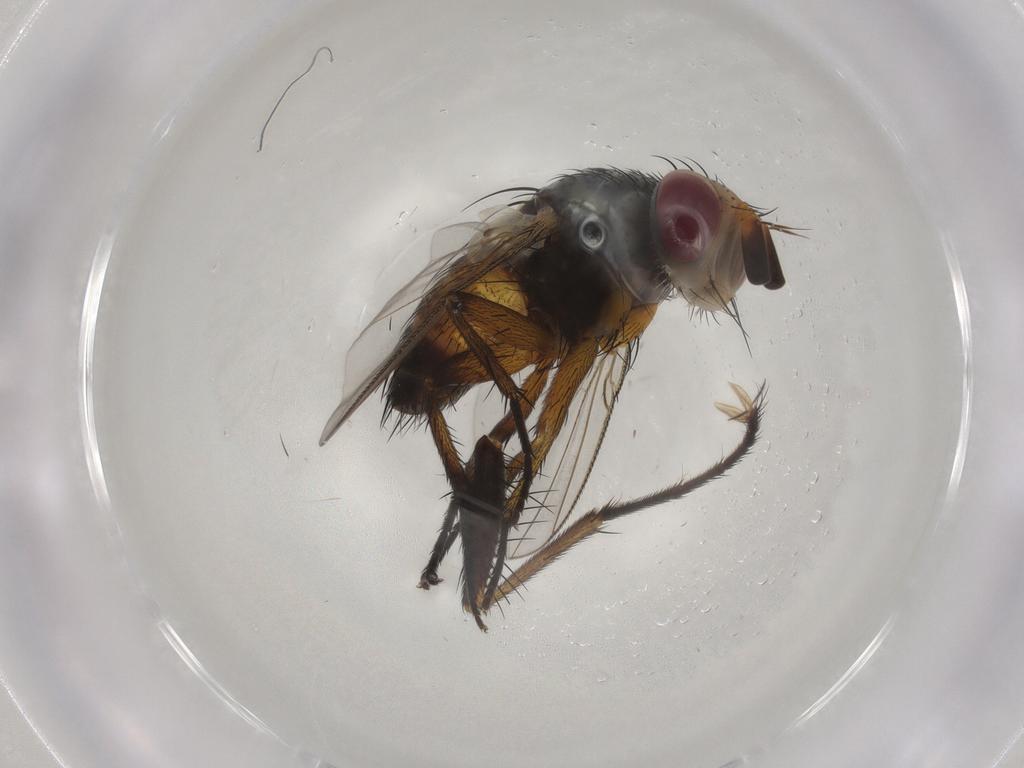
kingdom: Animalia
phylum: Arthropoda
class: Insecta
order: Diptera
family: Muscidae
